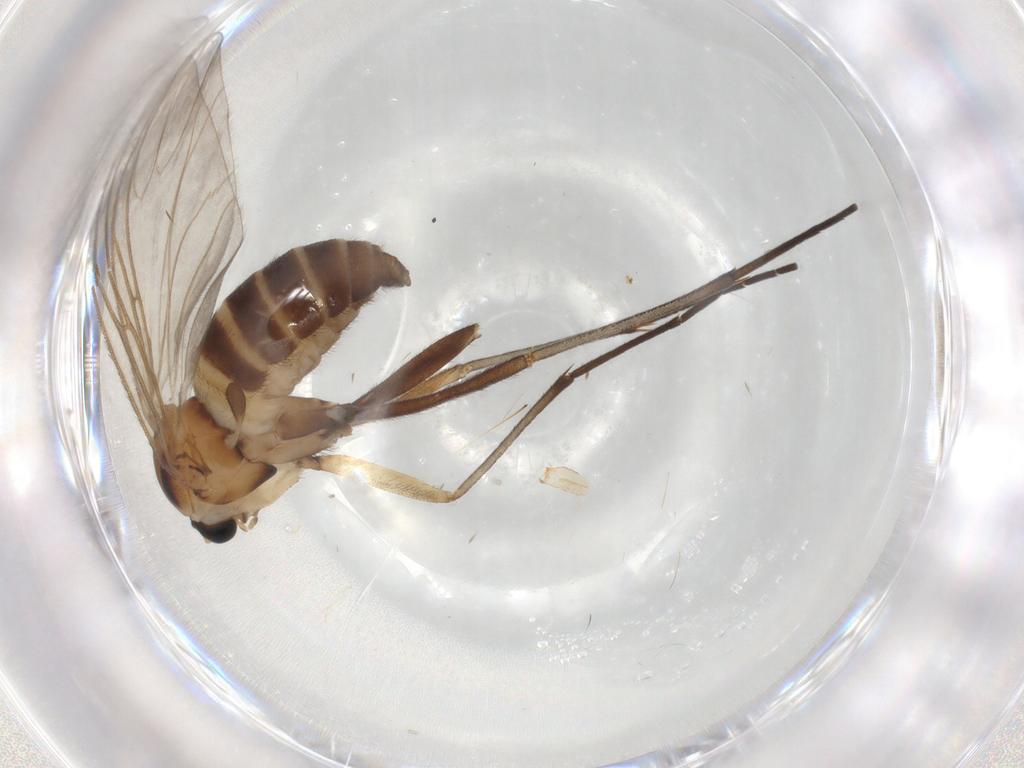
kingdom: Animalia
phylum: Arthropoda
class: Insecta
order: Diptera
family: Sciaridae
